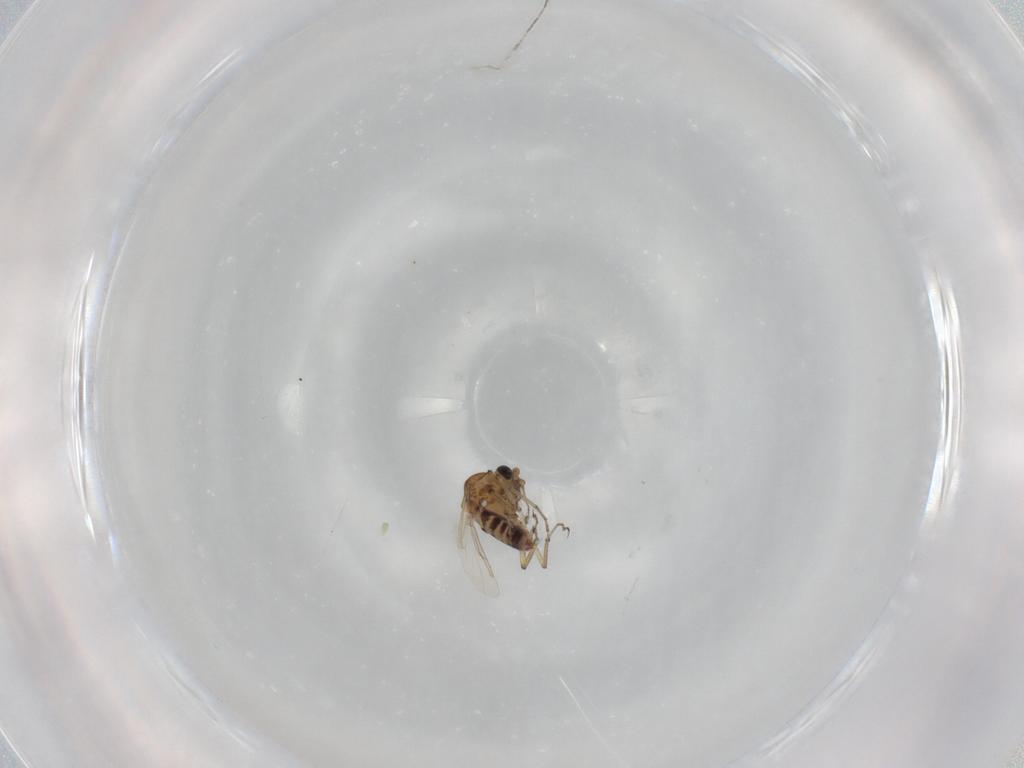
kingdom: Animalia
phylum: Arthropoda
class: Insecta
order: Diptera
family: Ceratopogonidae
